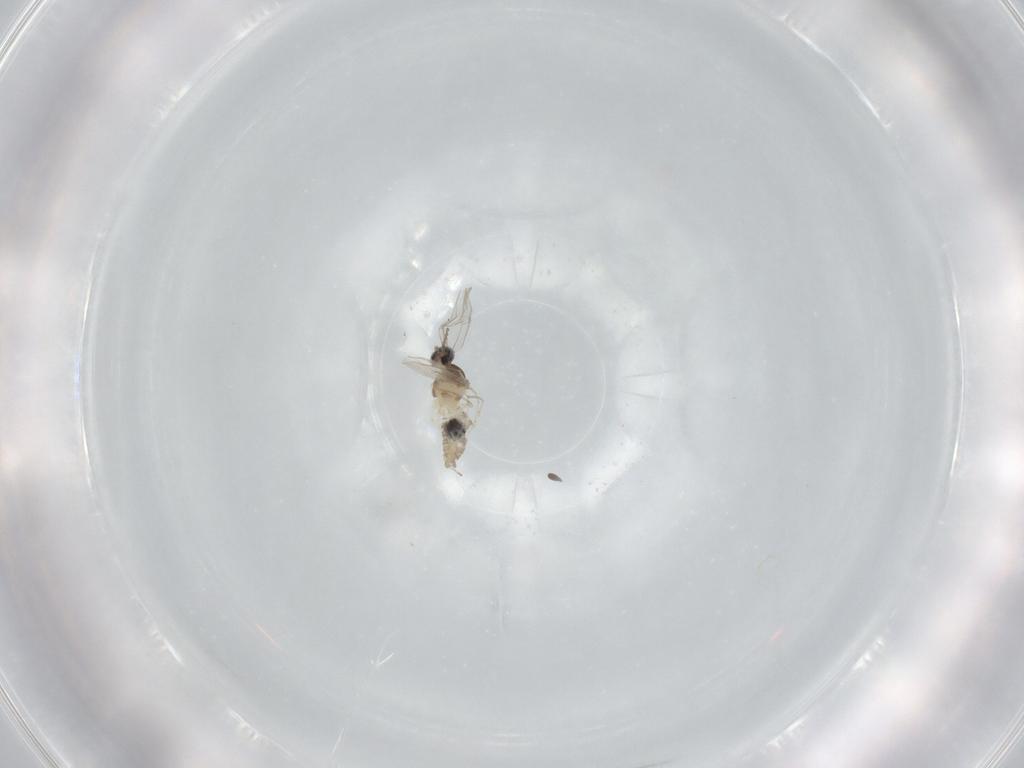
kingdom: Animalia
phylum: Arthropoda
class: Insecta
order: Diptera
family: Cecidomyiidae
